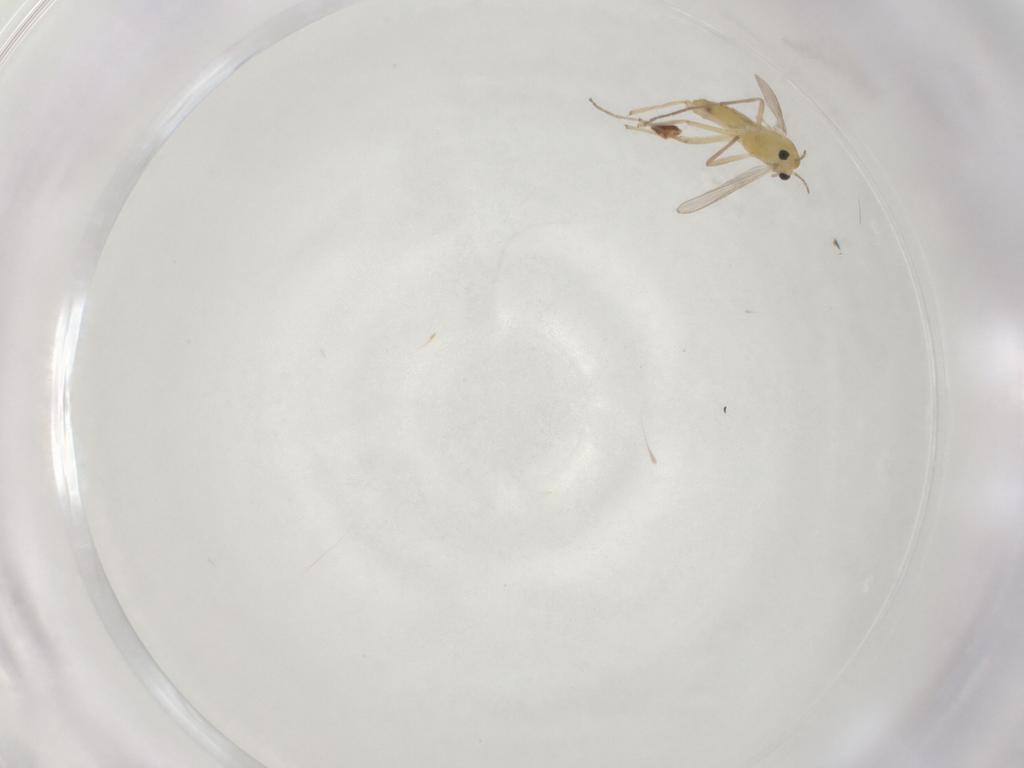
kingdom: Animalia
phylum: Arthropoda
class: Insecta
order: Diptera
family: Chironomidae
